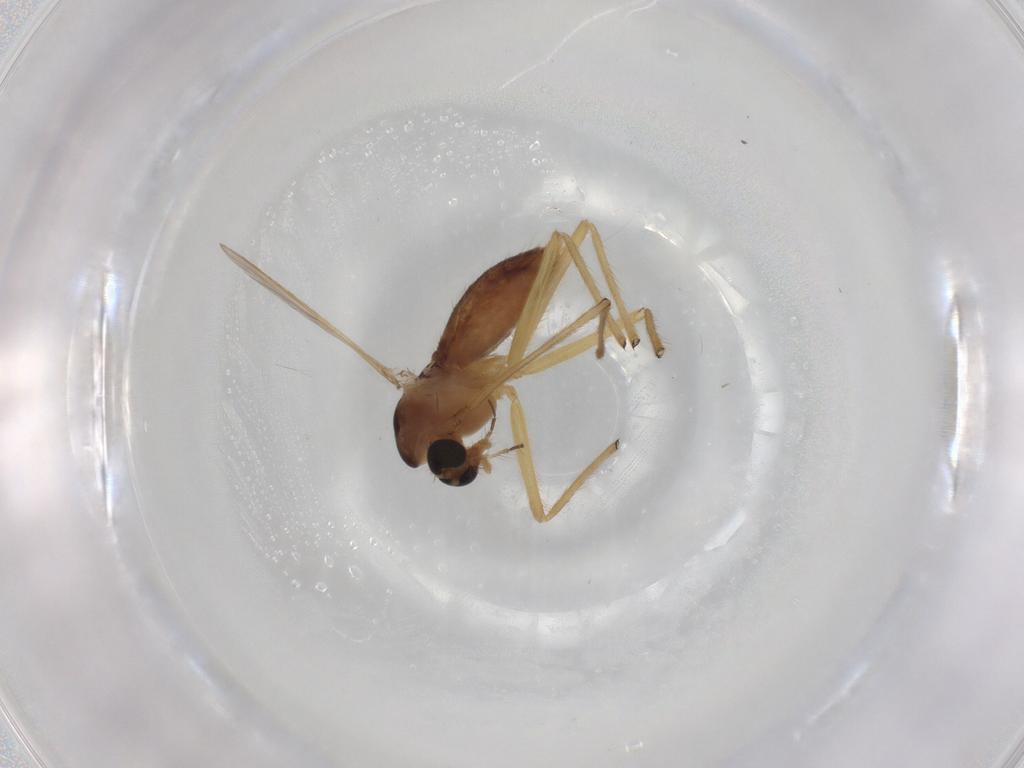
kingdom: Animalia
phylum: Arthropoda
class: Insecta
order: Diptera
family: Chironomidae
